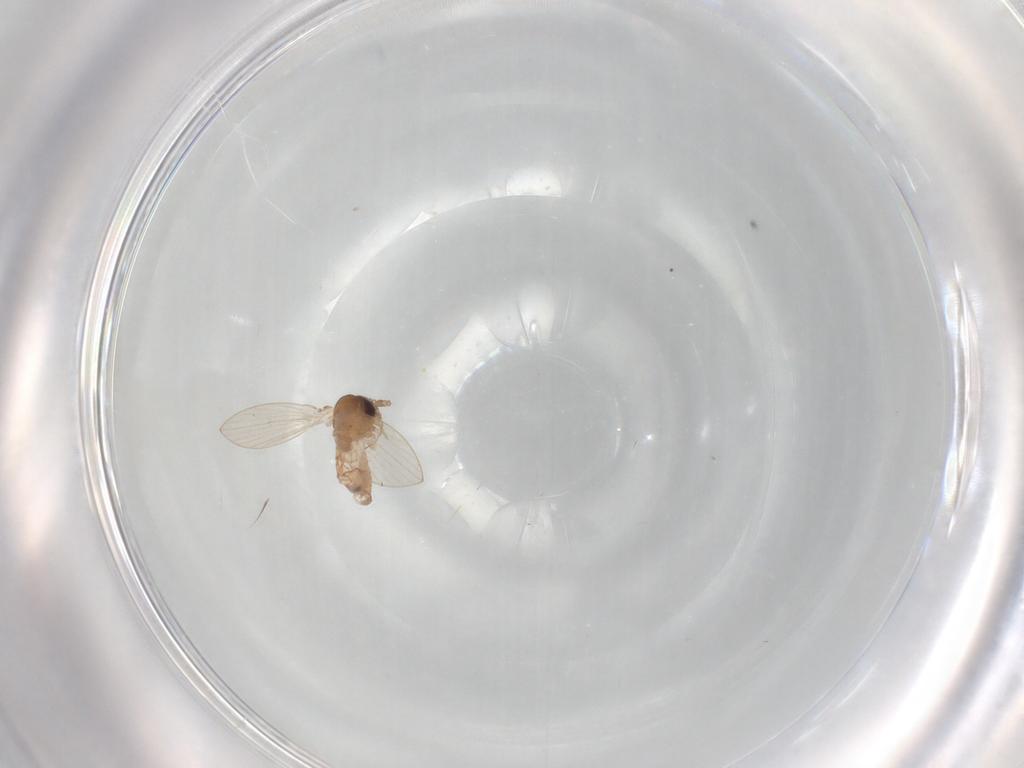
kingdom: Animalia
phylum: Arthropoda
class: Insecta
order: Diptera
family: Psychodidae
